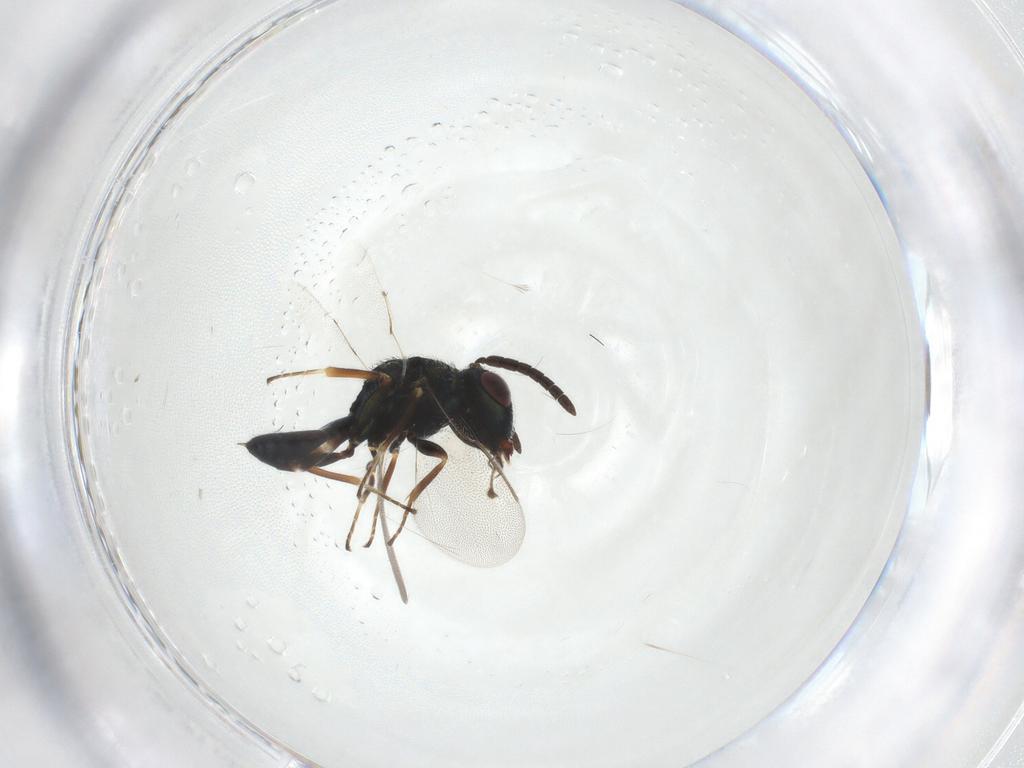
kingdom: Animalia
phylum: Arthropoda
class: Insecta
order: Hymenoptera
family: Pteromalidae
